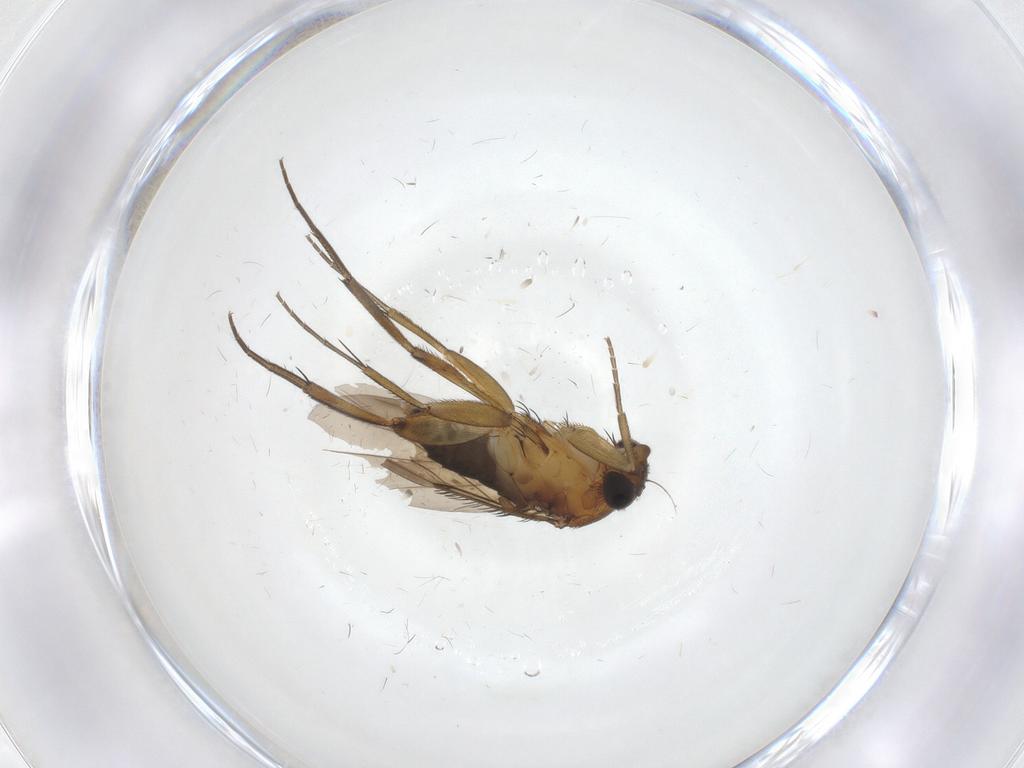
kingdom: Animalia
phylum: Arthropoda
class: Insecta
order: Diptera
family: Phoridae
